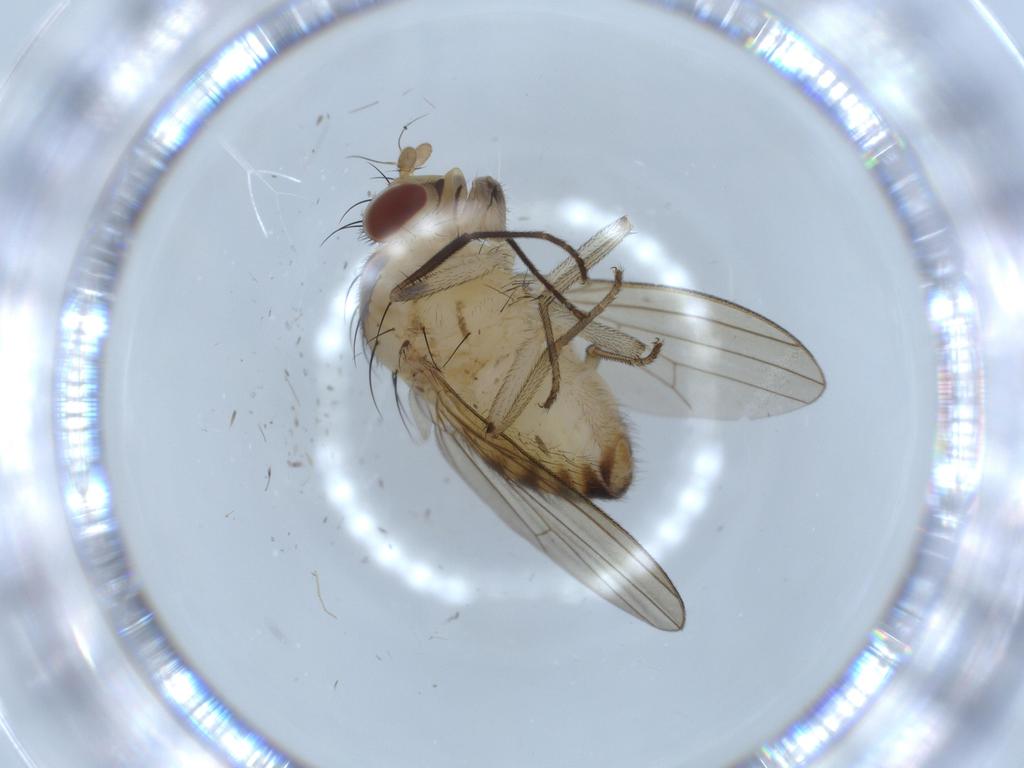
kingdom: Animalia
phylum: Arthropoda
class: Insecta
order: Diptera
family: Lauxaniidae
